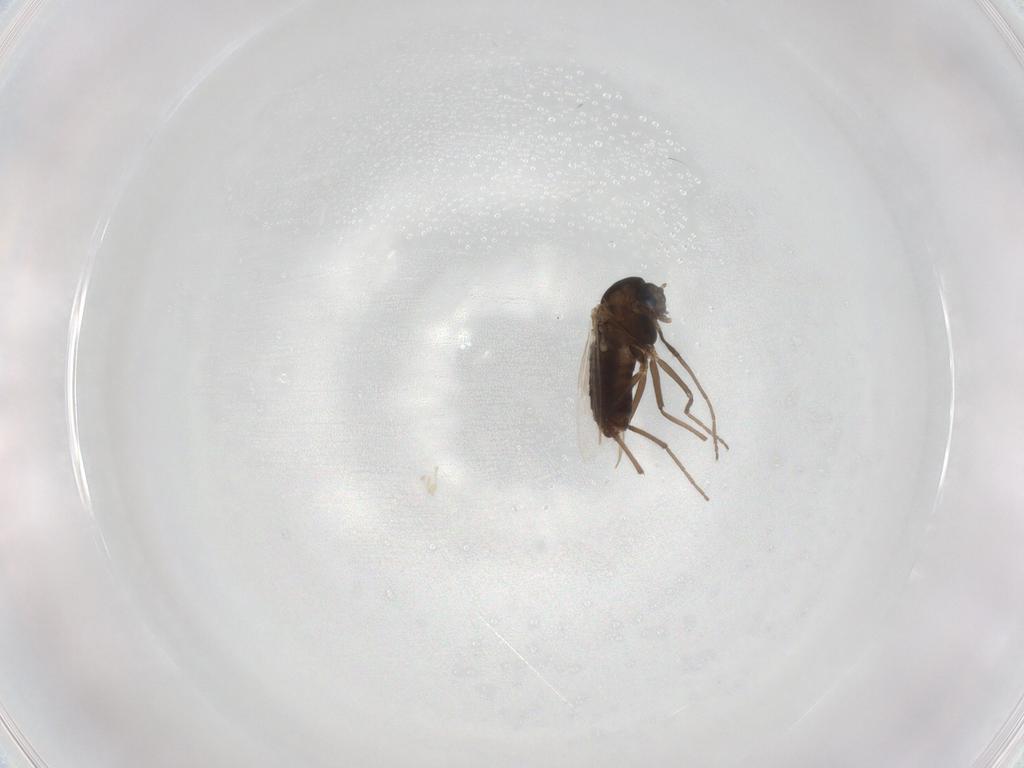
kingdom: Animalia
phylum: Arthropoda
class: Insecta
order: Diptera
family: Chironomidae
